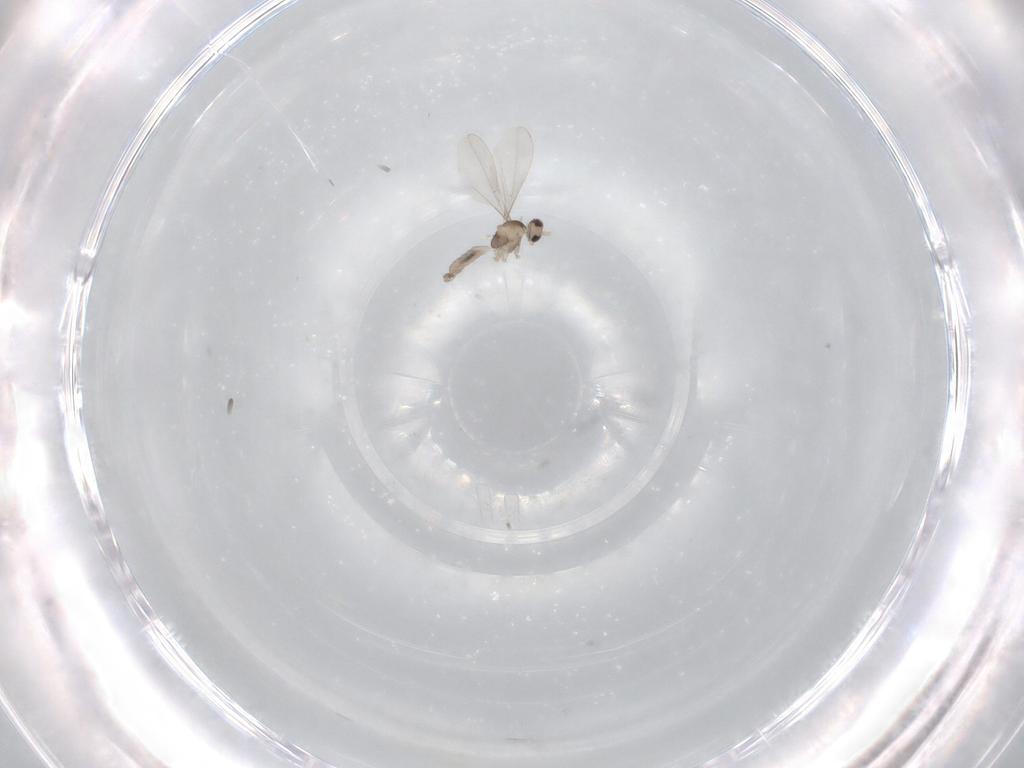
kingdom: Animalia
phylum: Arthropoda
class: Insecta
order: Diptera
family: Cecidomyiidae
